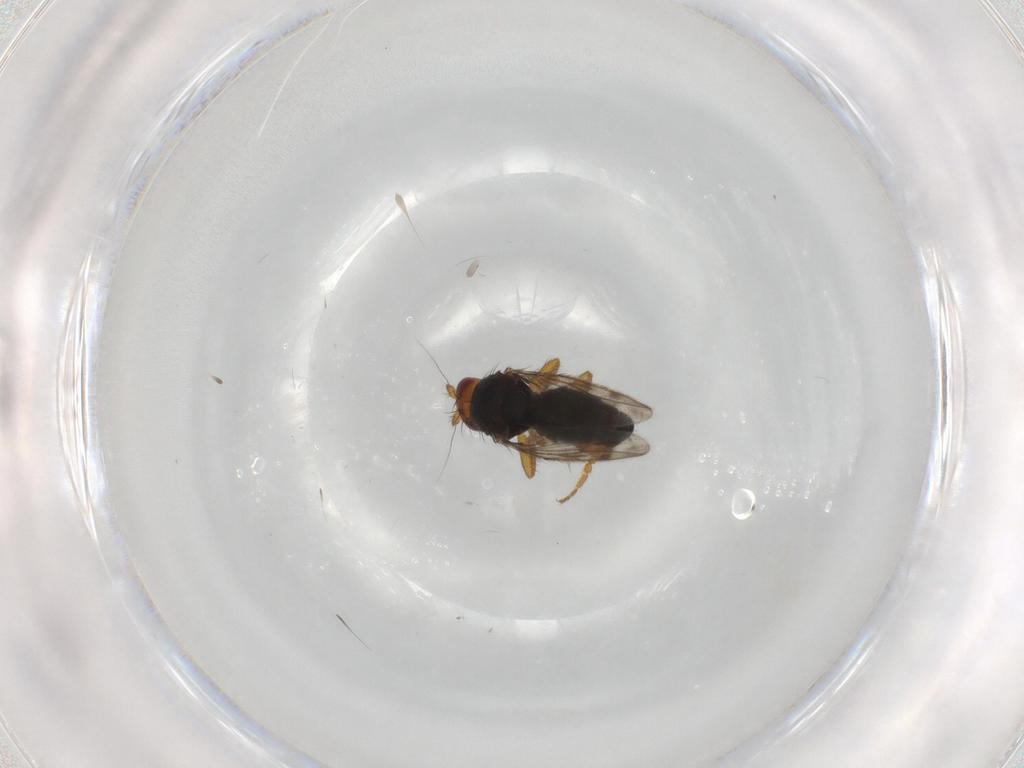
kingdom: Animalia
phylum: Arthropoda
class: Insecta
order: Diptera
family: Sphaeroceridae
